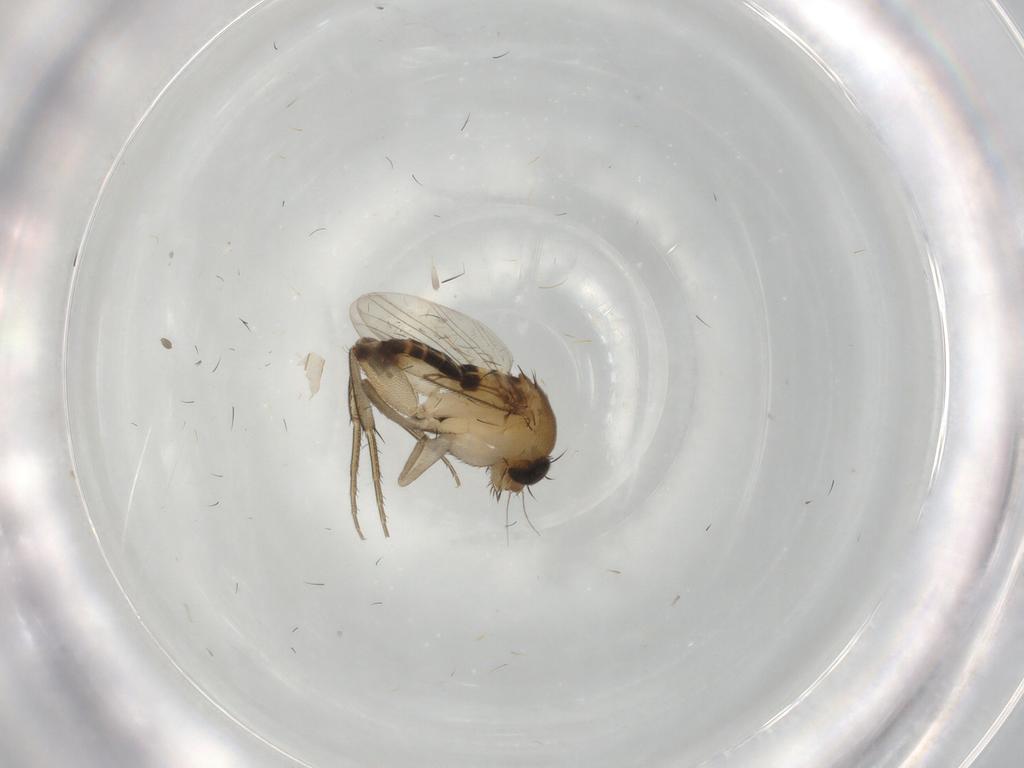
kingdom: Animalia
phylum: Arthropoda
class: Insecta
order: Diptera
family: Phoridae
